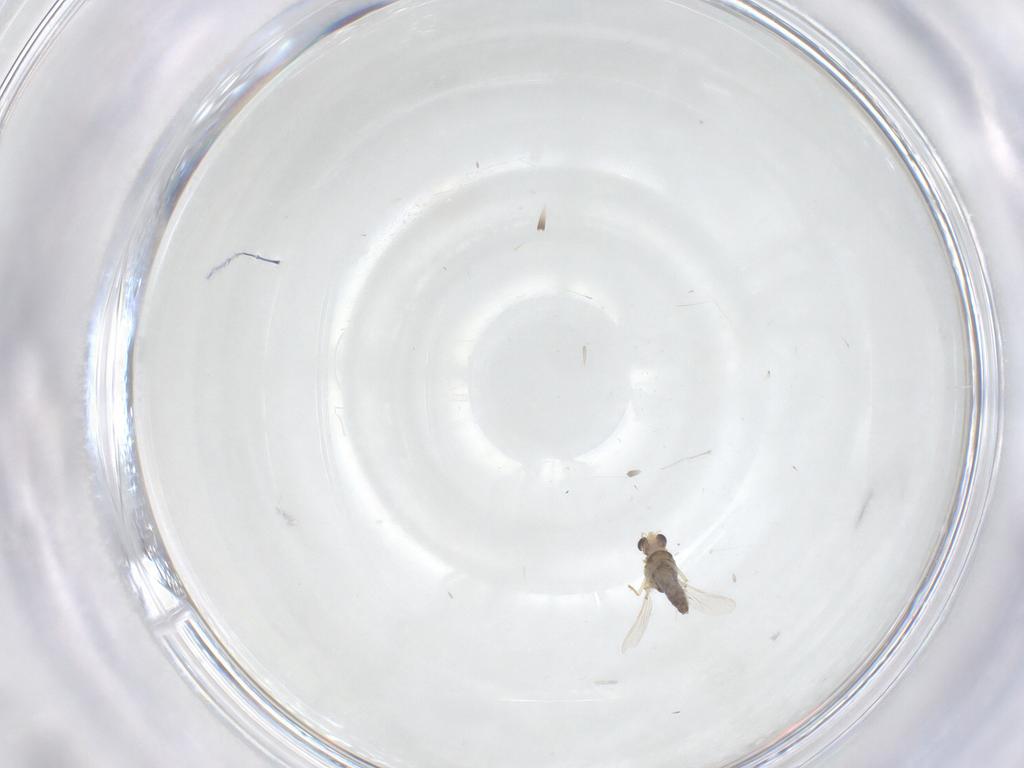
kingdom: Animalia
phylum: Arthropoda
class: Insecta
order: Diptera
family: Chironomidae
